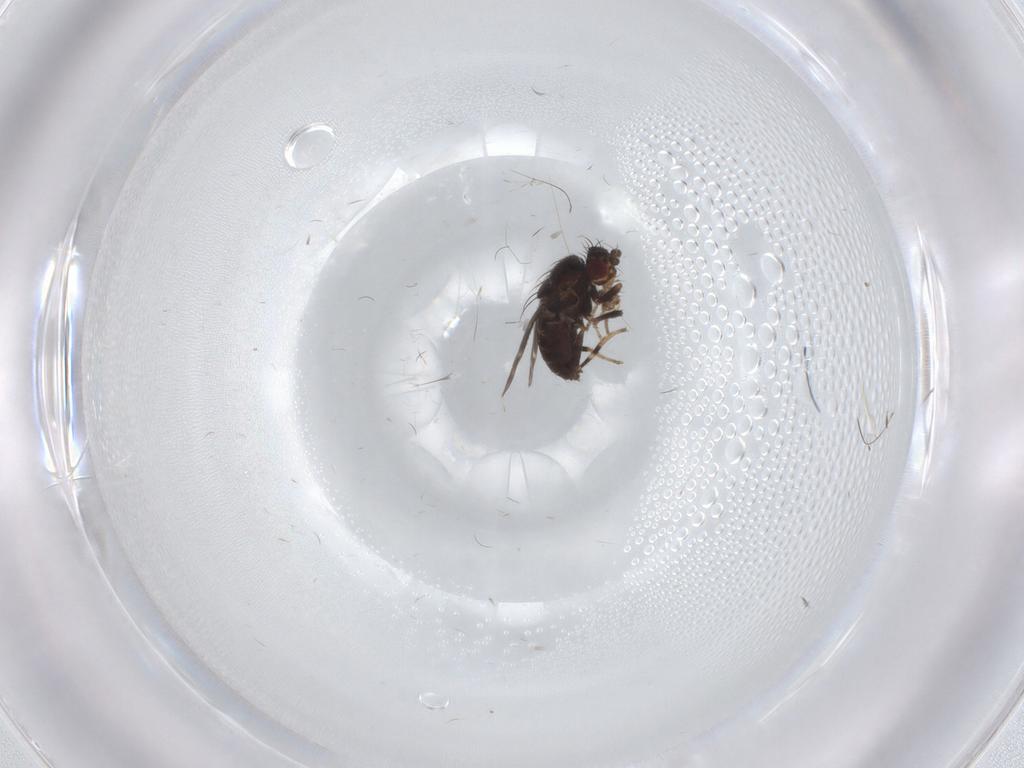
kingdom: Animalia
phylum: Arthropoda
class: Insecta
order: Diptera
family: Sphaeroceridae
